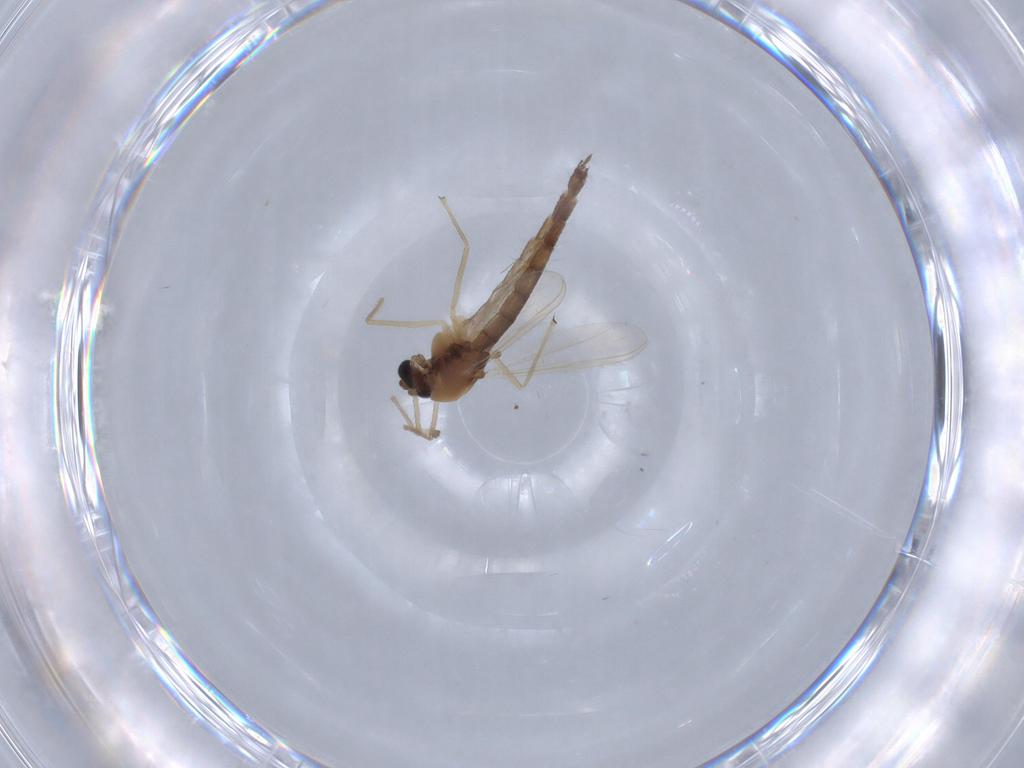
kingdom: Animalia
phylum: Arthropoda
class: Insecta
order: Diptera
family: Chironomidae
